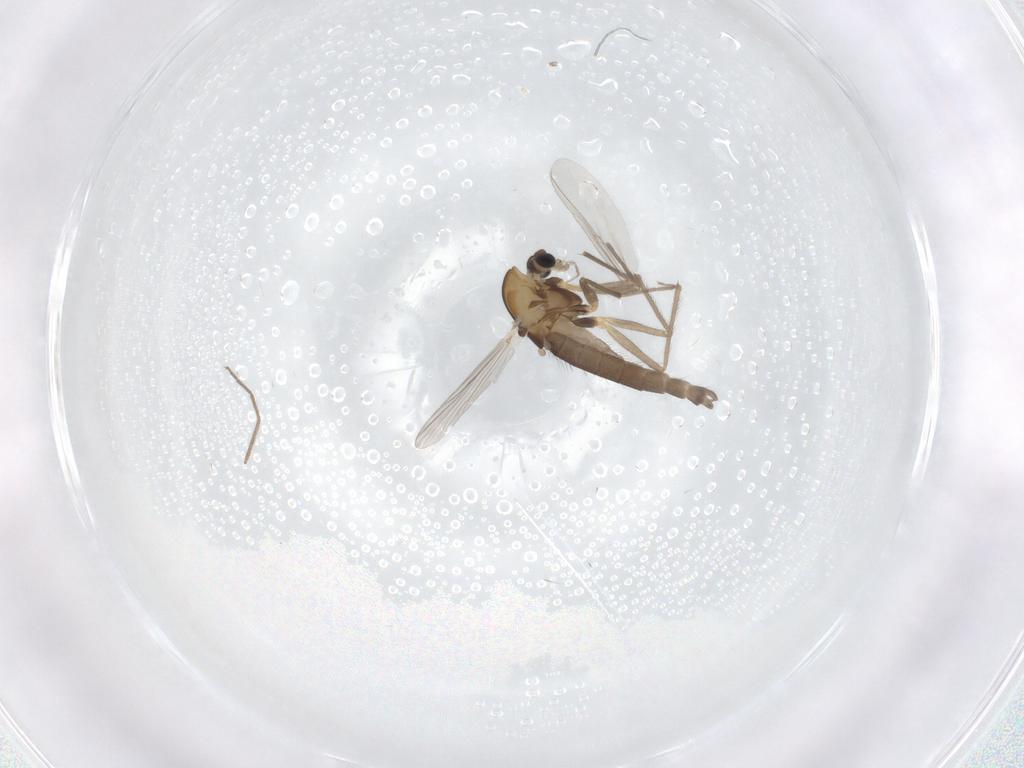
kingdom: Animalia
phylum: Arthropoda
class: Insecta
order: Diptera
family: Chironomidae
